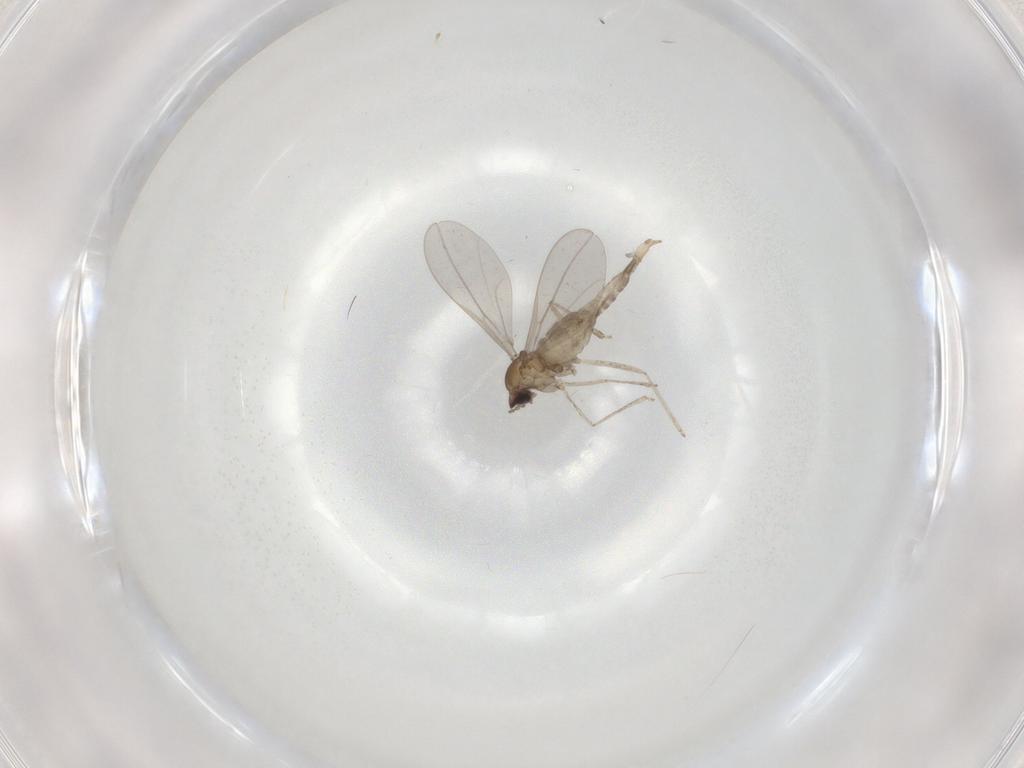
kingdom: Animalia
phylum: Arthropoda
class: Insecta
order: Diptera
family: Cecidomyiidae
